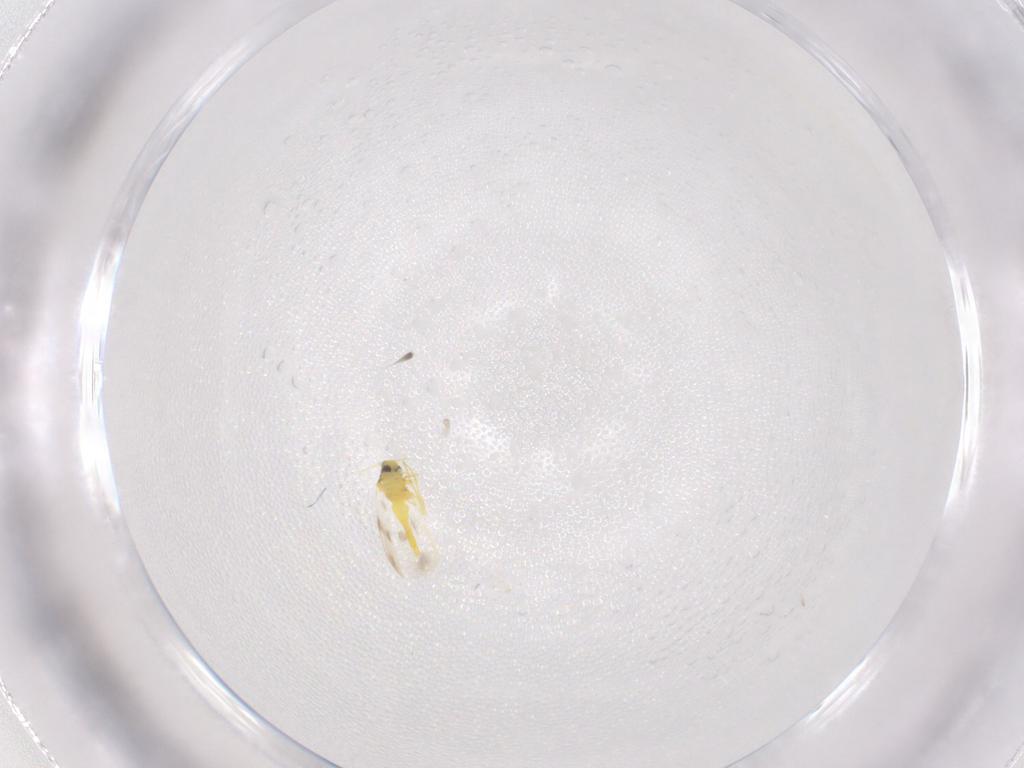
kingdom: Animalia
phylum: Arthropoda
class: Insecta
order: Hemiptera
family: Aleyrodidae
